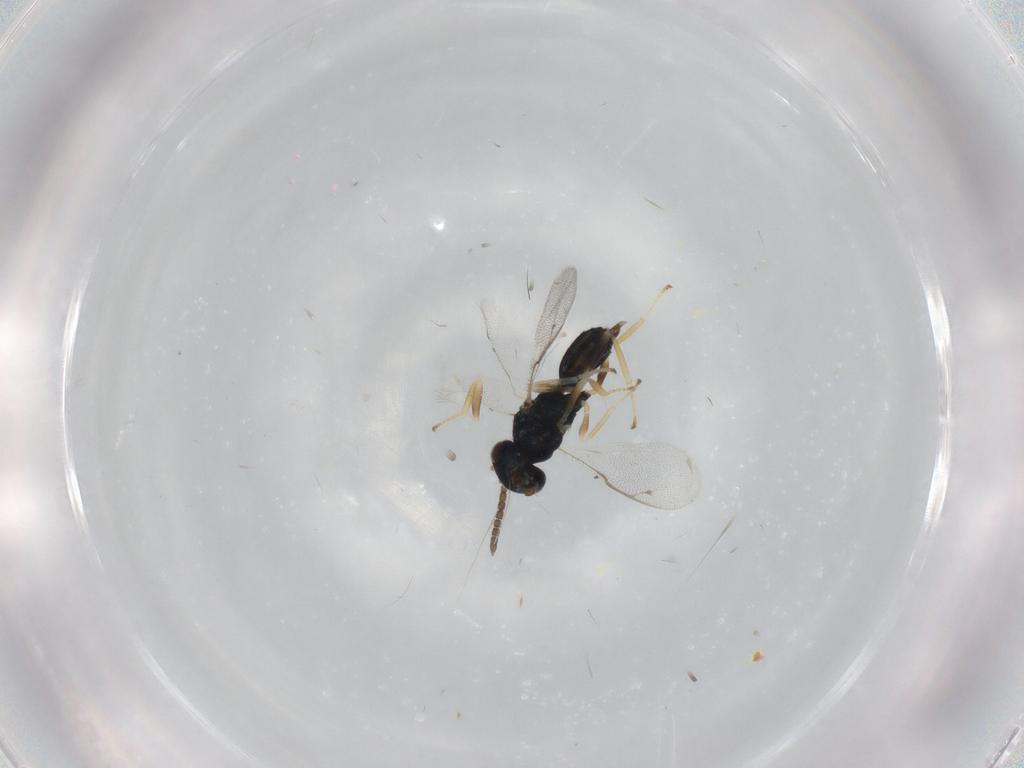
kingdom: Animalia
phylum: Arthropoda
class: Insecta
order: Hymenoptera
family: Pteromalidae
